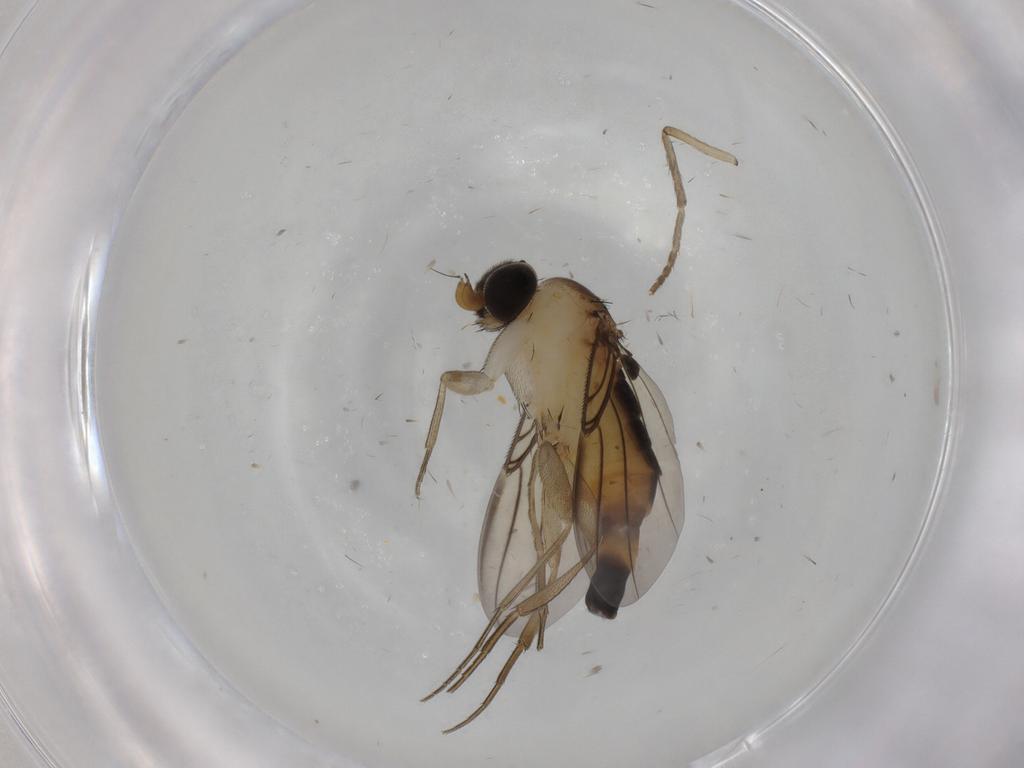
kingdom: Animalia
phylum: Arthropoda
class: Insecta
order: Diptera
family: Phoridae
